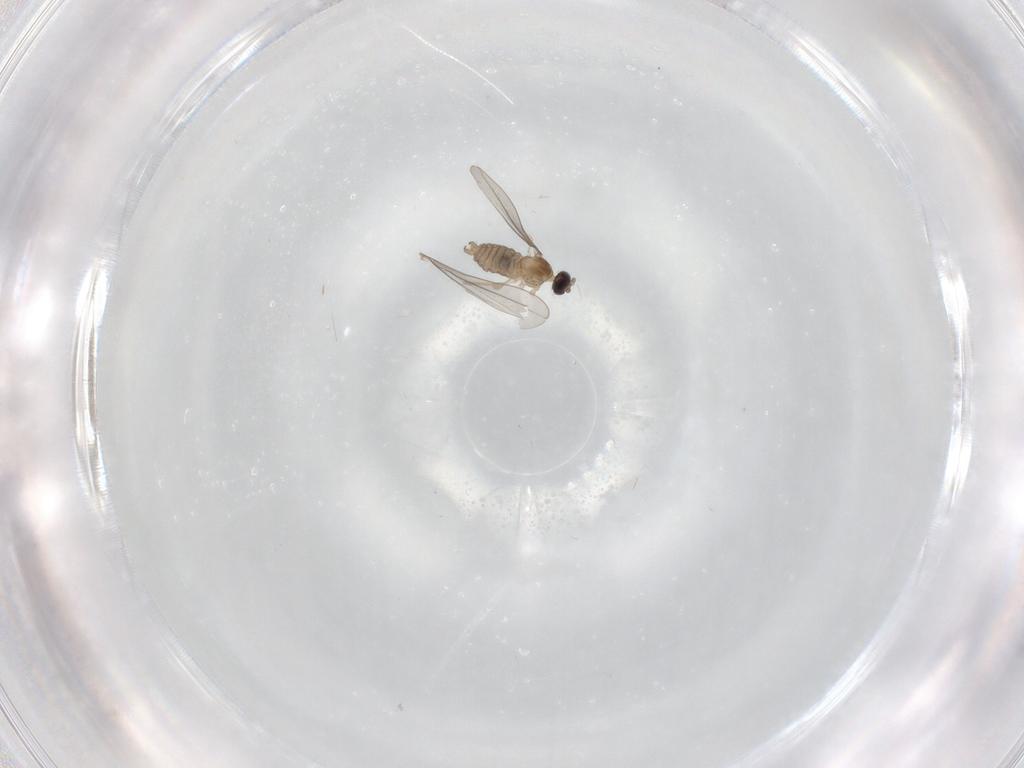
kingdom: Animalia
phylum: Arthropoda
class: Insecta
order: Diptera
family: Cecidomyiidae
